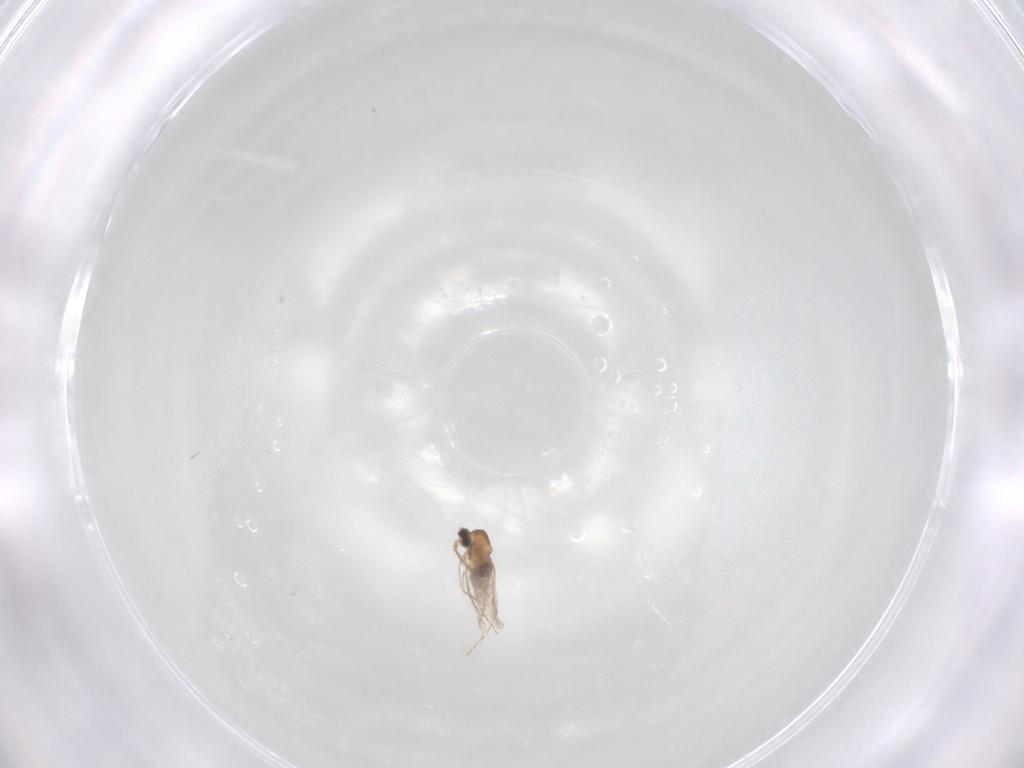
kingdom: Animalia
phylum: Arthropoda
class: Insecta
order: Diptera
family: Cecidomyiidae
